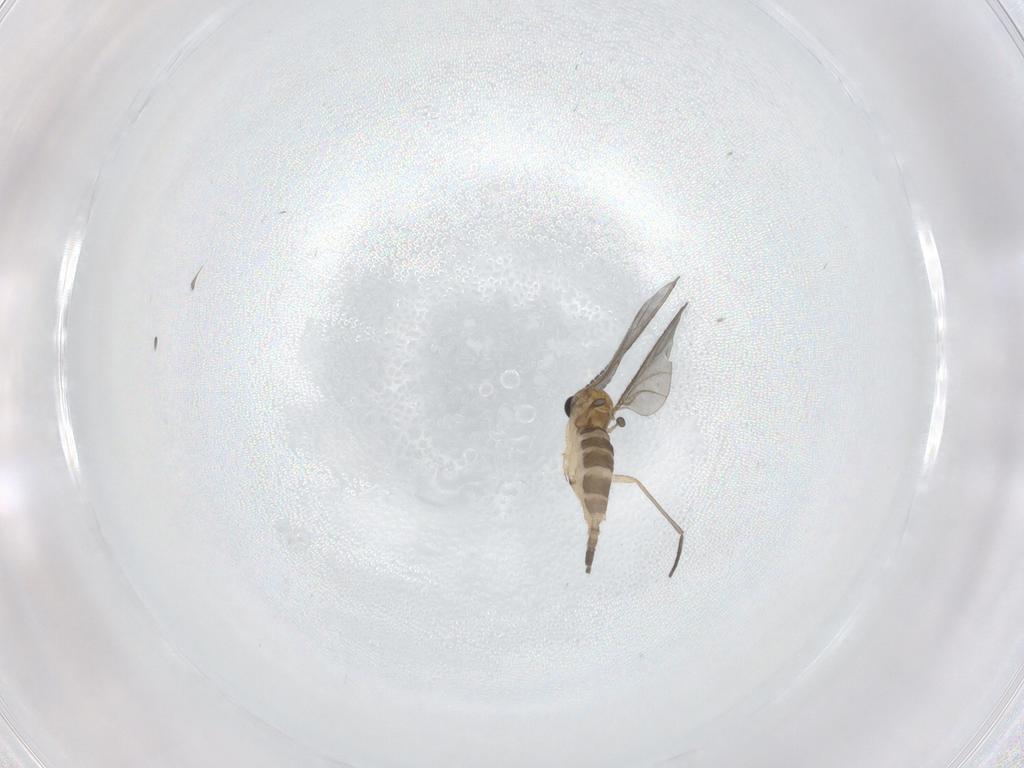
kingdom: Animalia
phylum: Arthropoda
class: Insecta
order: Diptera
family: Sciaridae
